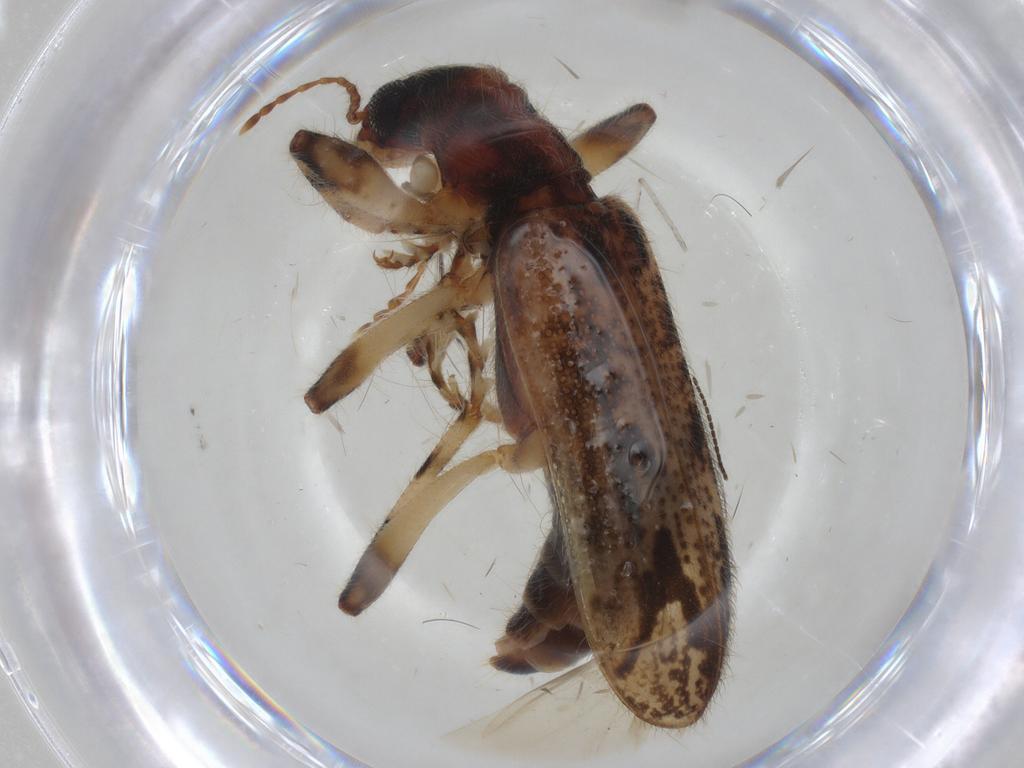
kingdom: Animalia
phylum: Arthropoda
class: Insecta
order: Coleoptera
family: Cleridae
